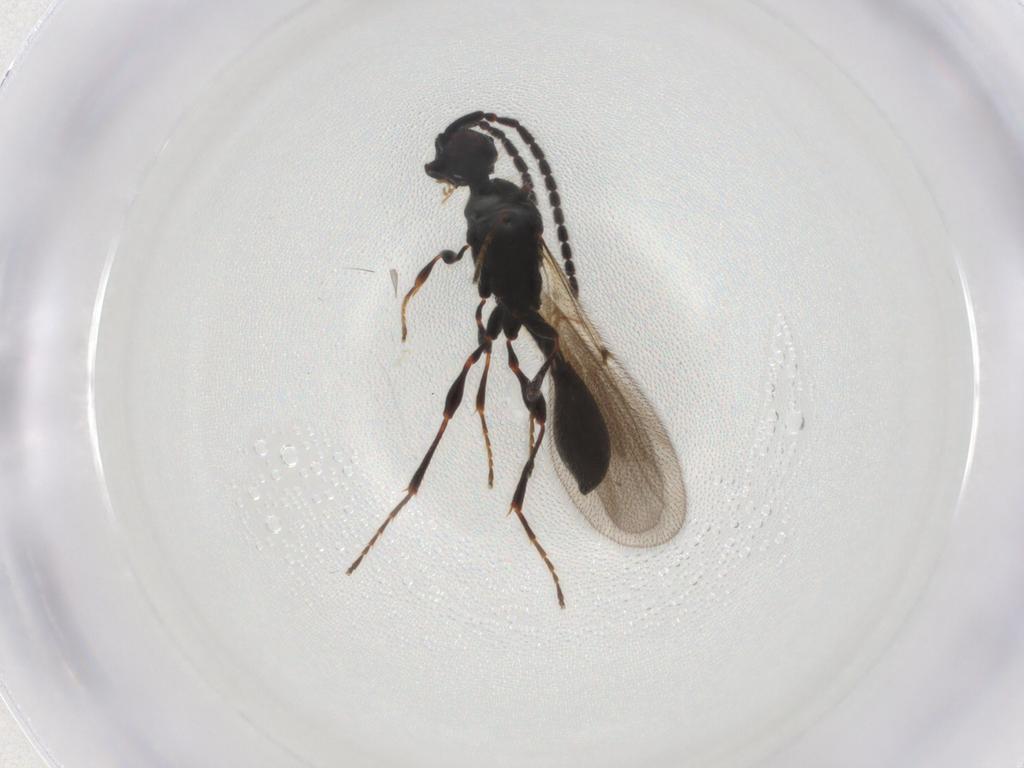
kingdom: Animalia
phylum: Arthropoda
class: Insecta
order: Hymenoptera
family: Diapriidae
